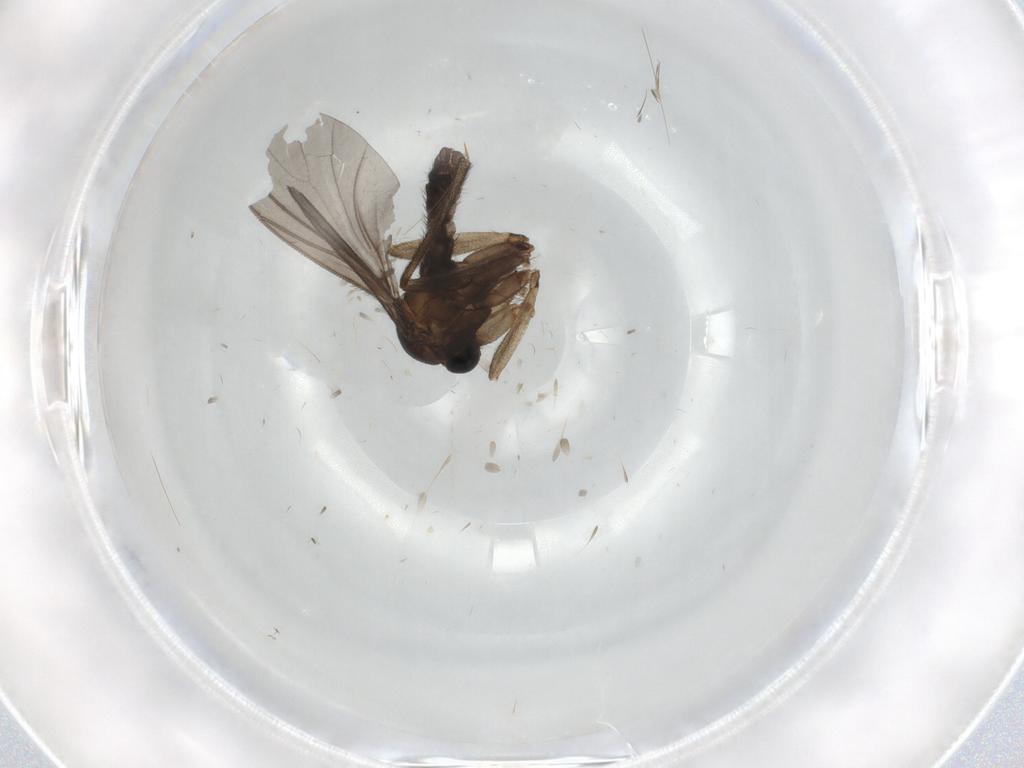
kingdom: Animalia
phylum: Arthropoda
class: Insecta
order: Diptera
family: Sciaridae
